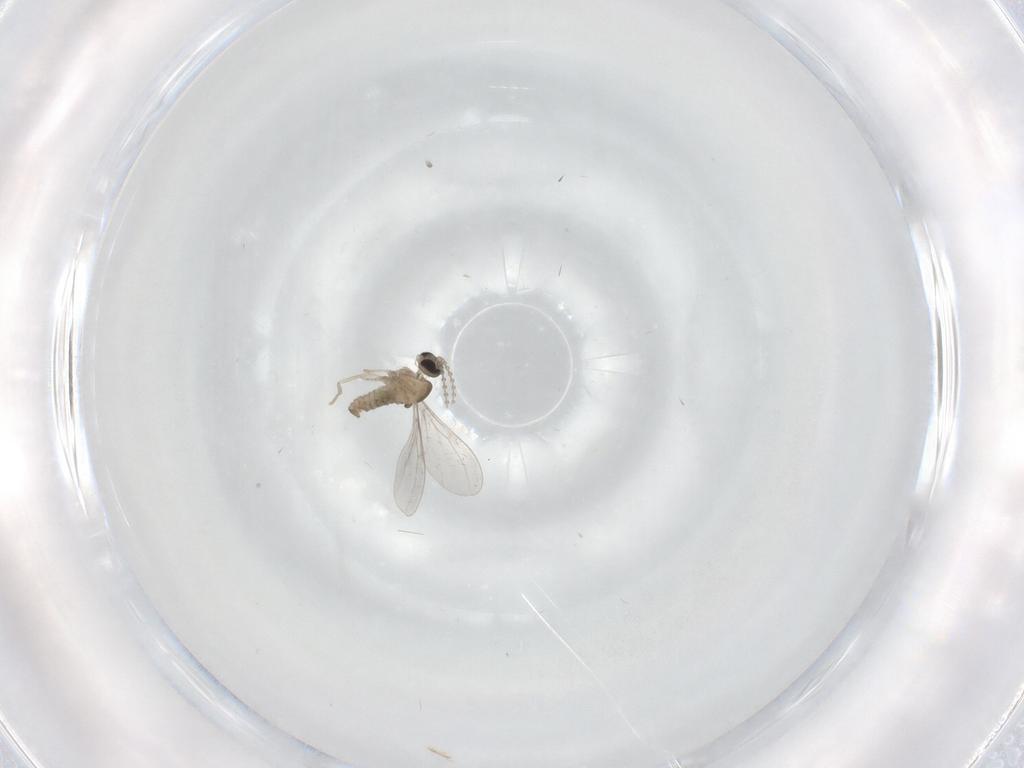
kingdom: Animalia
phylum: Arthropoda
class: Insecta
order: Diptera
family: Cecidomyiidae
